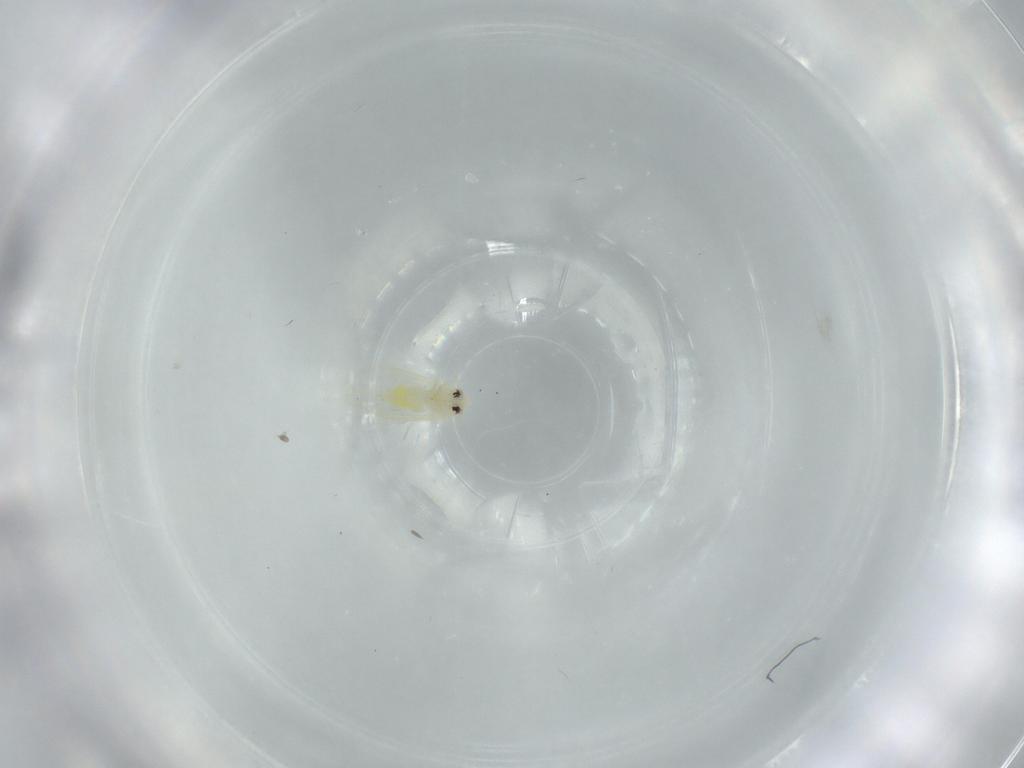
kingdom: Animalia
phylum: Arthropoda
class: Insecta
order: Hemiptera
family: Aleyrodidae
